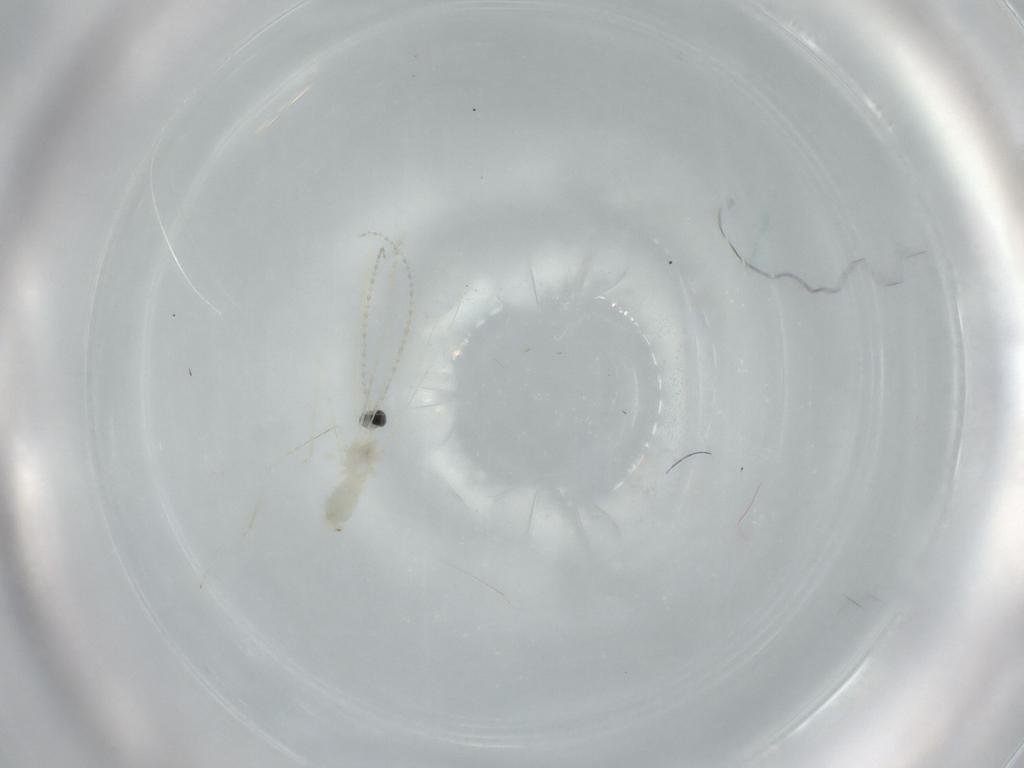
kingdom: Animalia
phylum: Arthropoda
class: Insecta
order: Diptera
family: Cecidomyiidae
